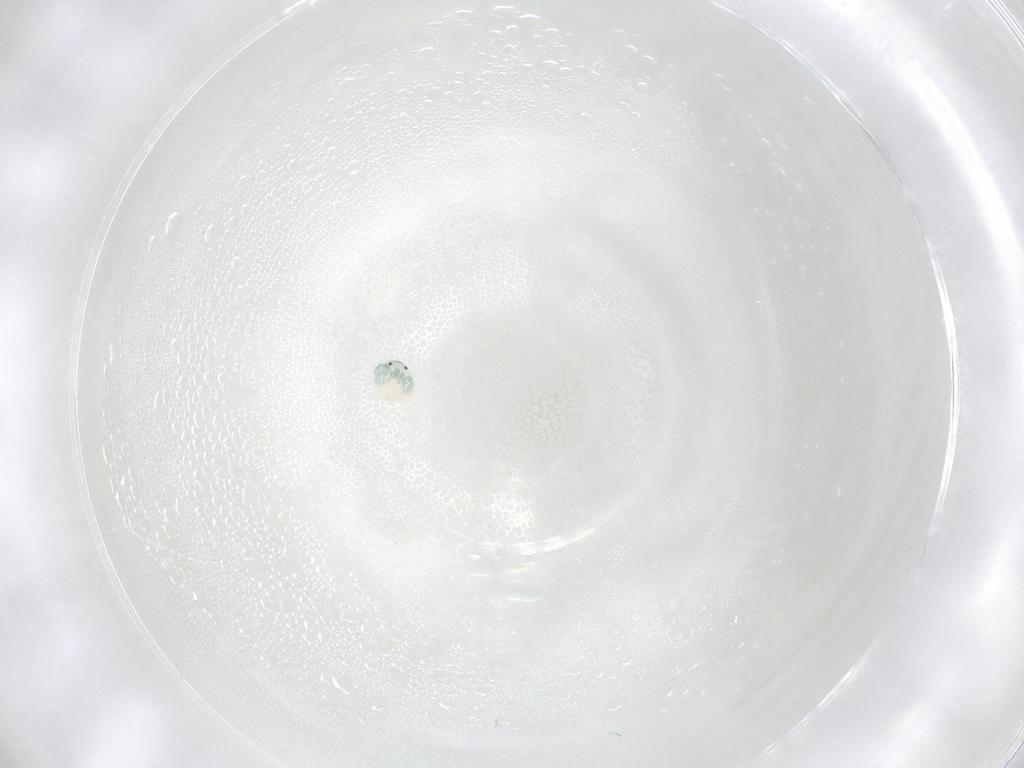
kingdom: Animalia
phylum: Arthropoda
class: Arachnida
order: Trombidiformes
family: Arrenuridae
